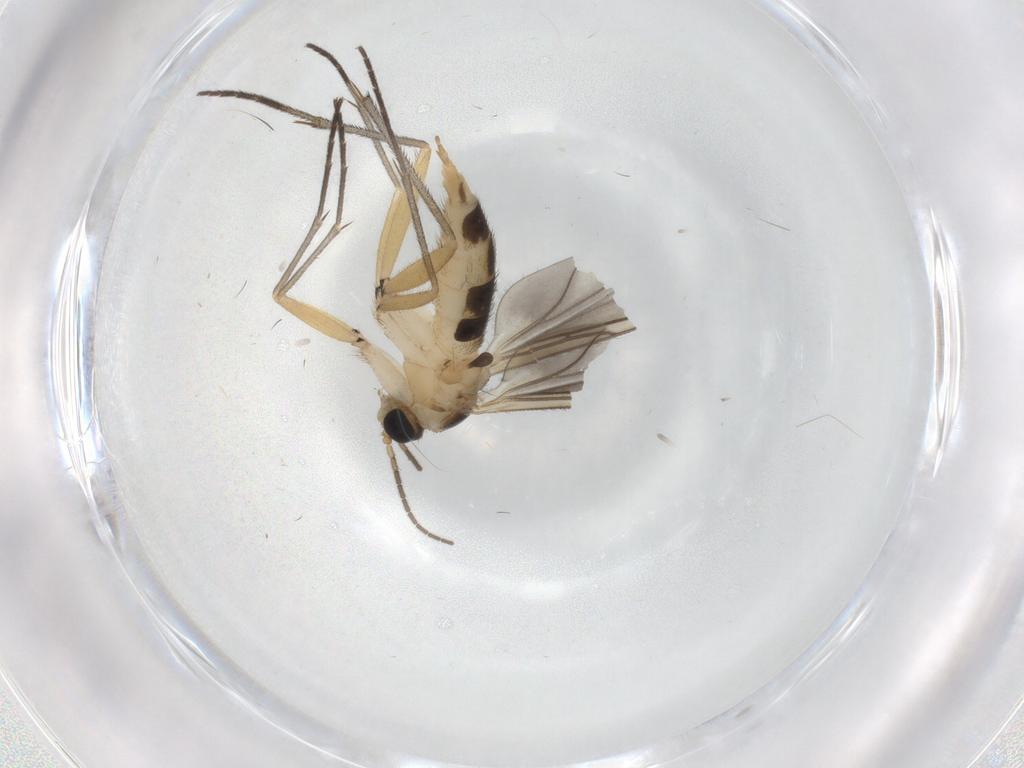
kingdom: Animalia
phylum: Arthropoda
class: Insecta
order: Diptera
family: Sciaridae
